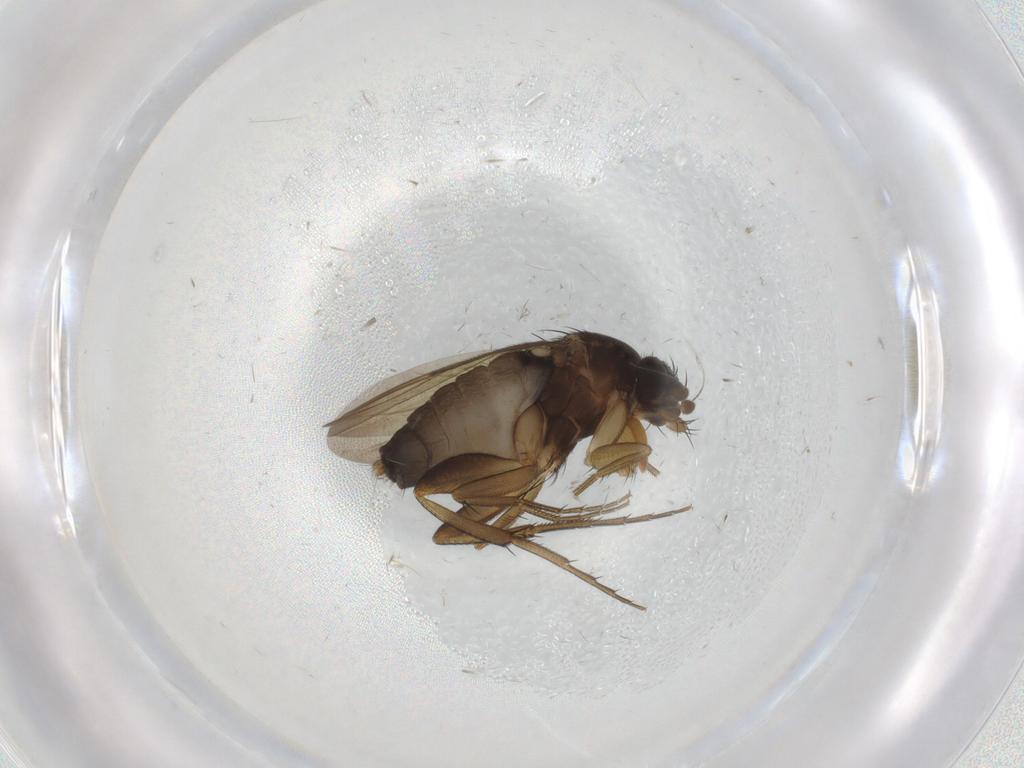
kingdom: Animalia
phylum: Arthropoda
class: Insecta
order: Diptera
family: Phoridae
